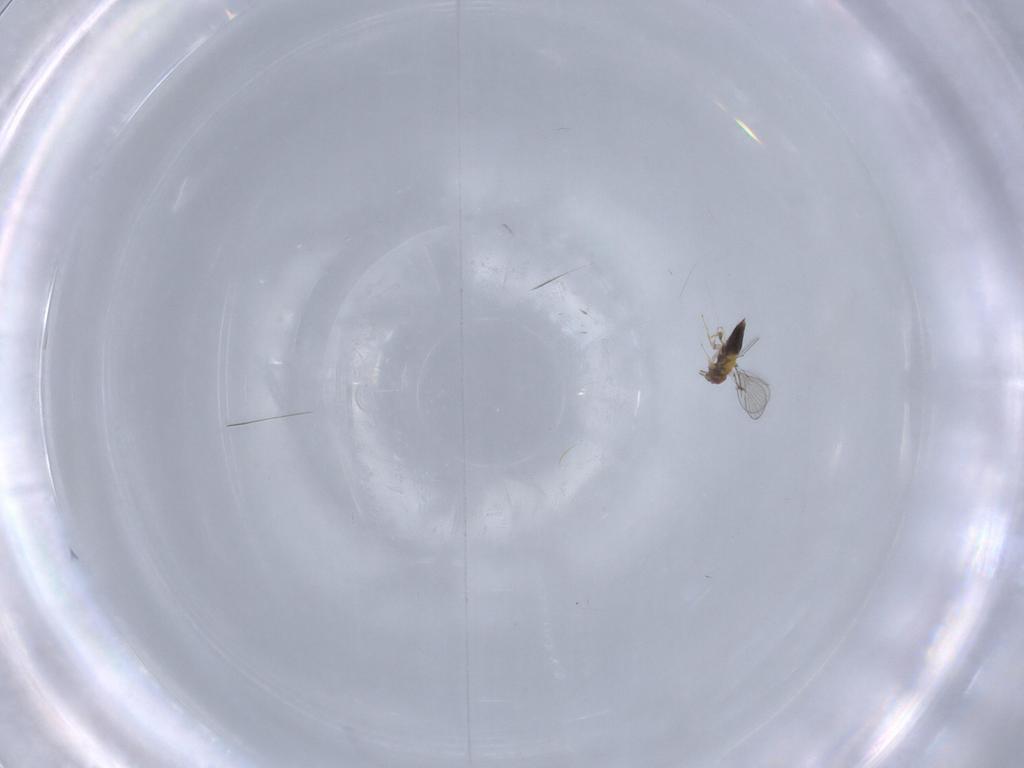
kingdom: Animalia
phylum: Arthropoda
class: Insecta
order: Hymenoptera
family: Trichogrammatidae
